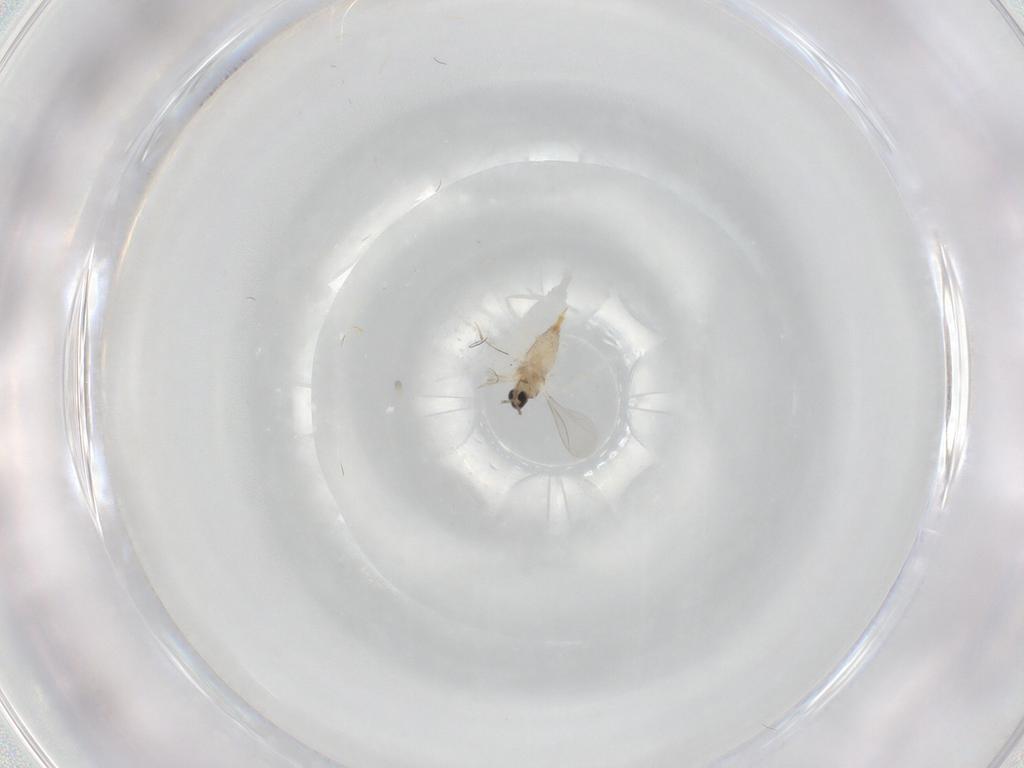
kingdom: Animalia
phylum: Arthropoda
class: Insecta
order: Diptera
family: Cecidomyiidae
